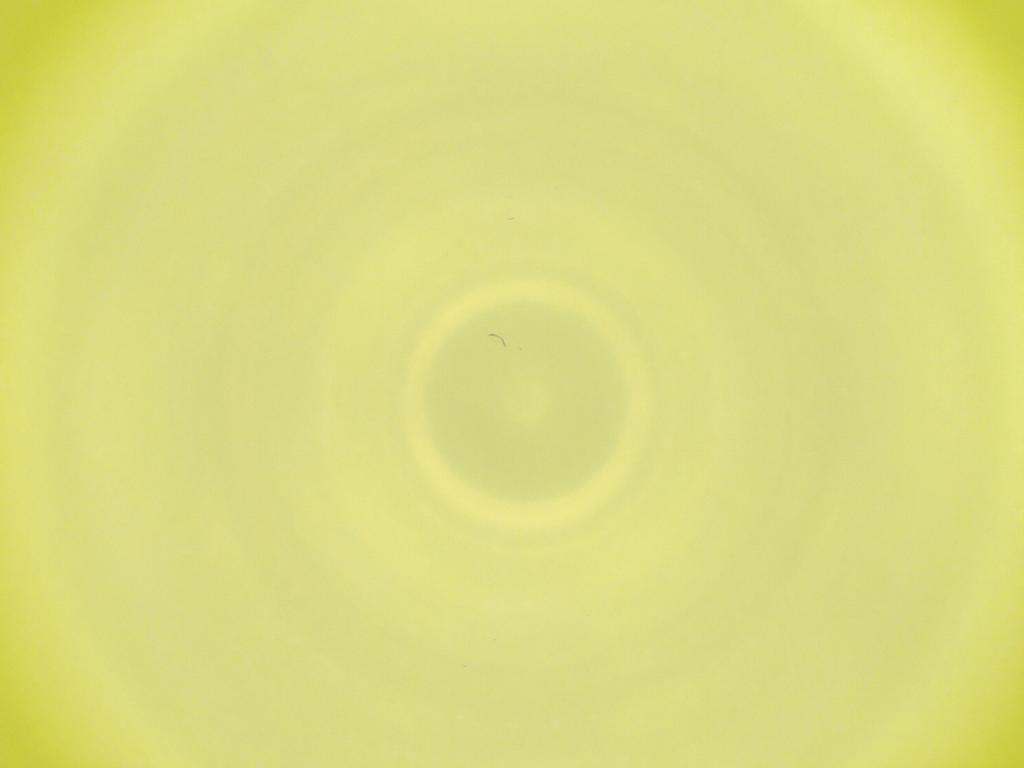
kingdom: Animalia
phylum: Arthropoda
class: Insecta
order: Diptera
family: Cecidomyiidae
